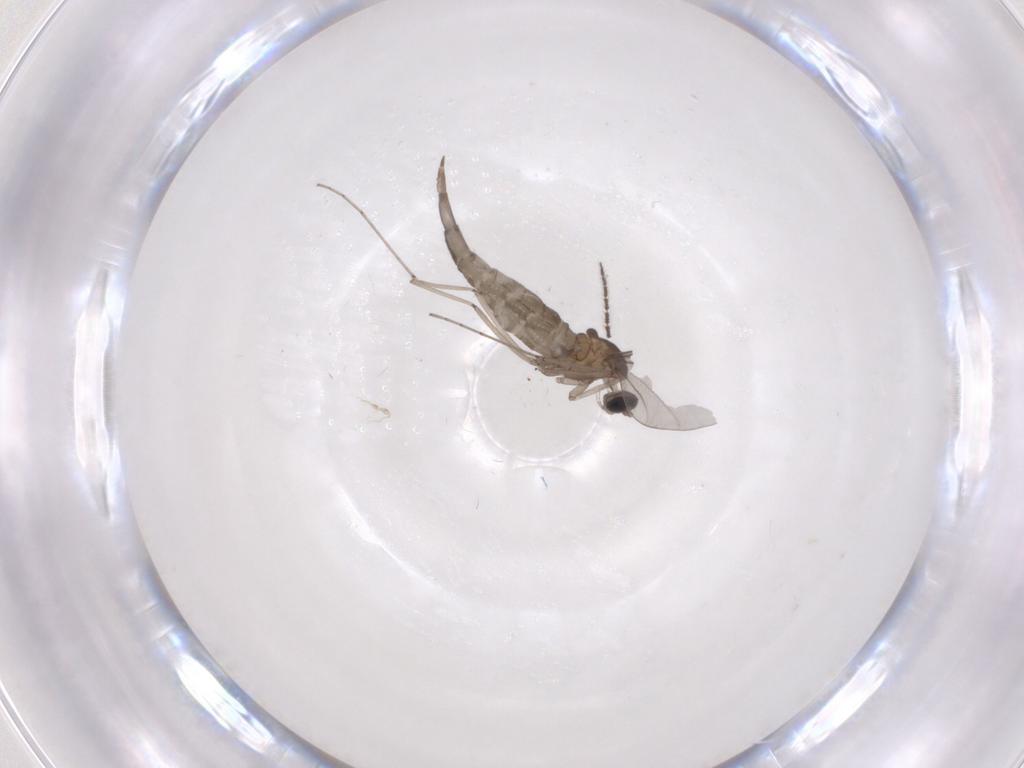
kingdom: Animalia
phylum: Arthropoda
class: Insecta
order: Diptera
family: Cecidomyiidae
